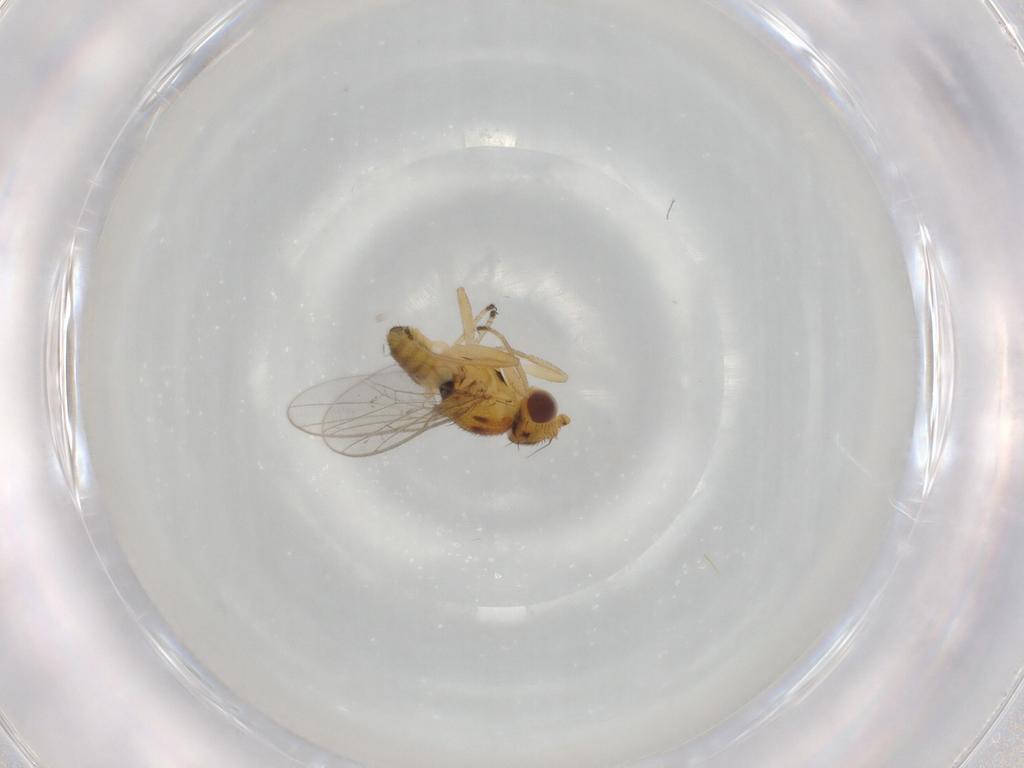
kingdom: Animalia
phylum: Arthropoda
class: Insecta
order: Diptera
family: Chloropidae
